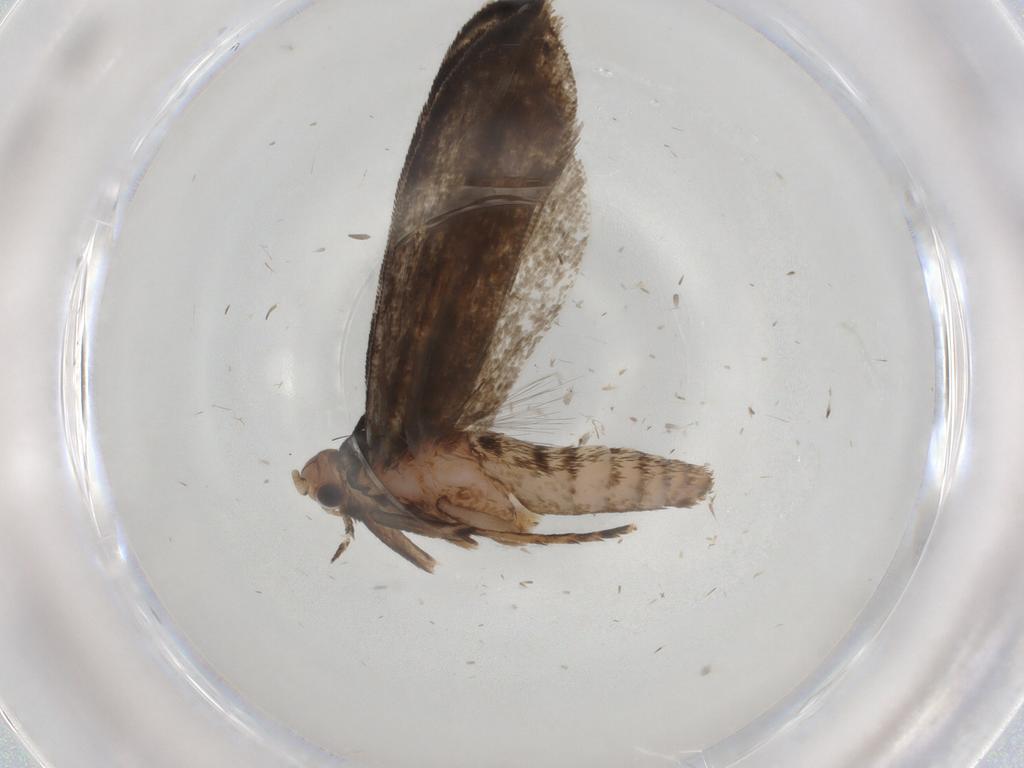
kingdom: Animalia
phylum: Arthropoda
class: Insecta
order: Lepidoptera
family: Tineidae
